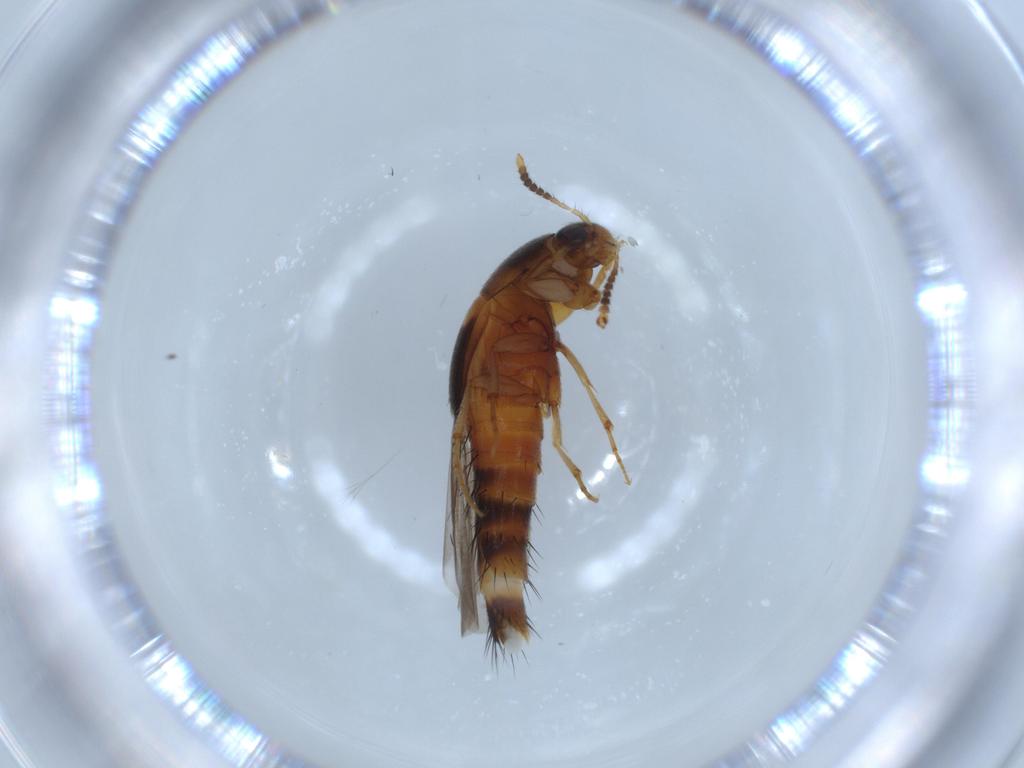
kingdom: Animalia
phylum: Arthropoda
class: Insecta
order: Coleoptera
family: Staphylinidae
